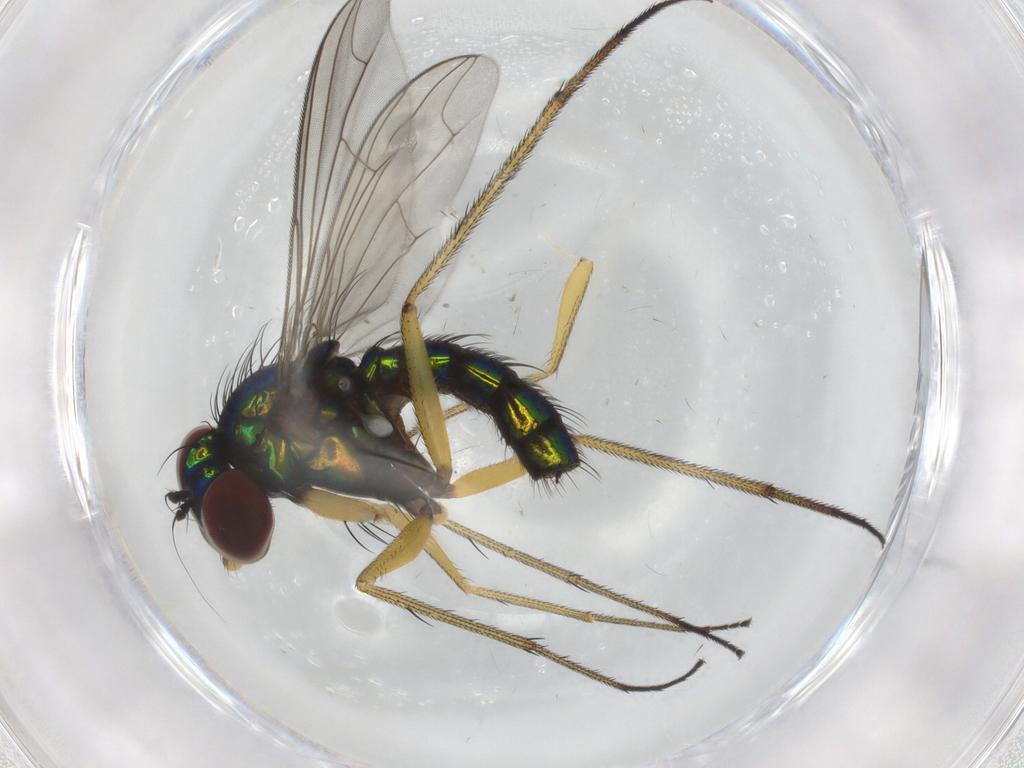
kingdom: Animalia
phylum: Arthropoda
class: Insecta
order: Diptera
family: Dolichopodidae
